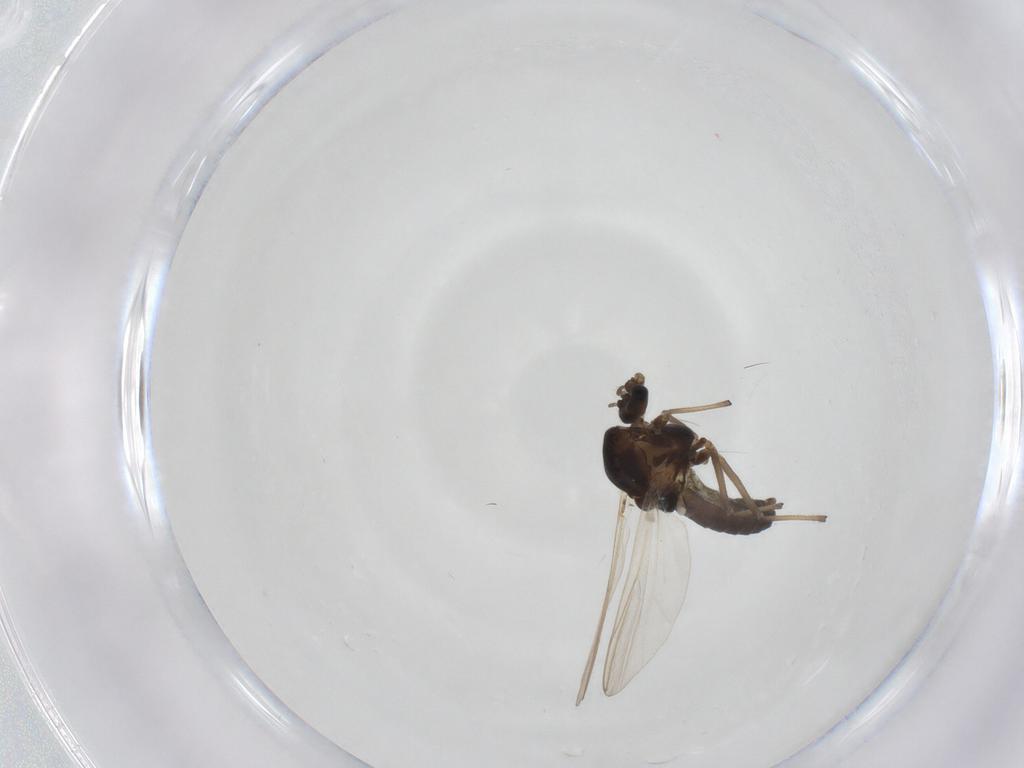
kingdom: Animalia
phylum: Arthropoda
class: Insecta
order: Diptera
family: Chironomidae
